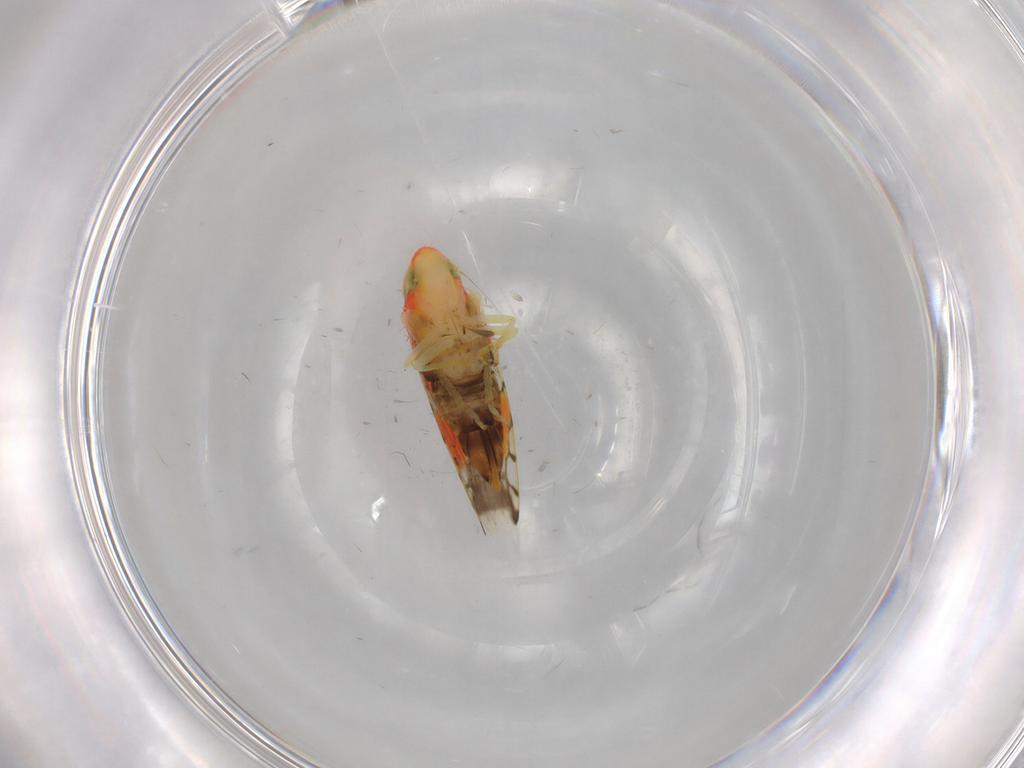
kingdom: Animalia
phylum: Arthropoda
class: Insecta
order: Hemiptera
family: Cicadellidae
